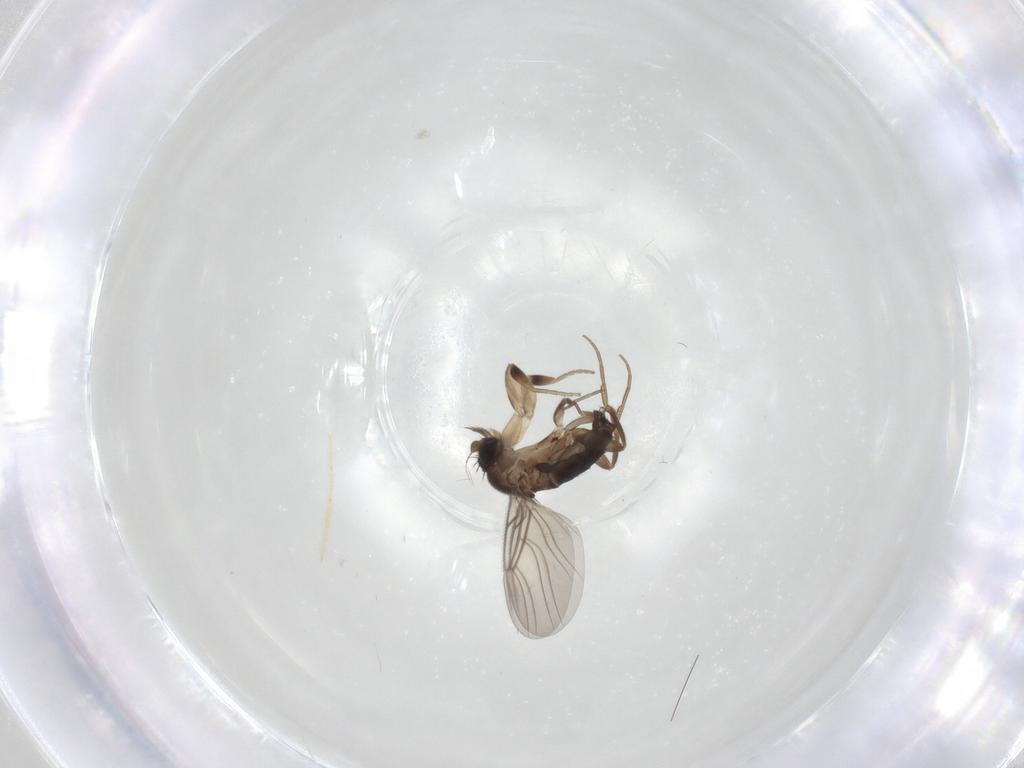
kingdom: Animalia
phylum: Arthropoda
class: Insecta
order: Diptera
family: Phoridae
